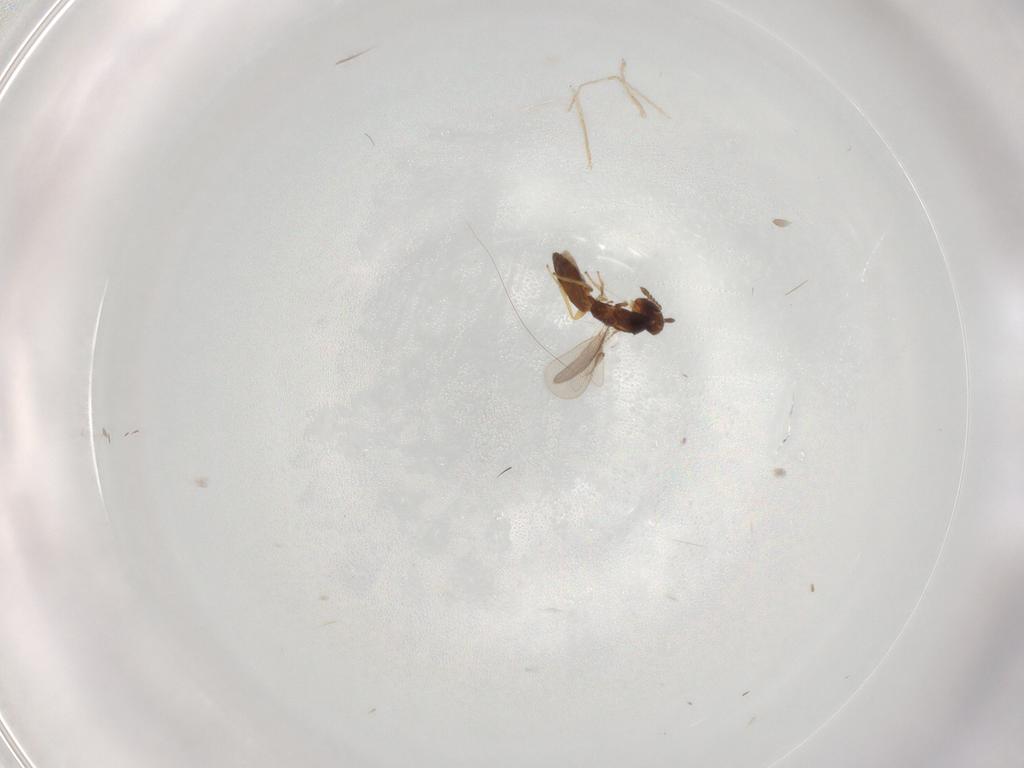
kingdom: Animalia
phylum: Arthropoda
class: Insecta
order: Hymenoptera
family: Eulophidae
